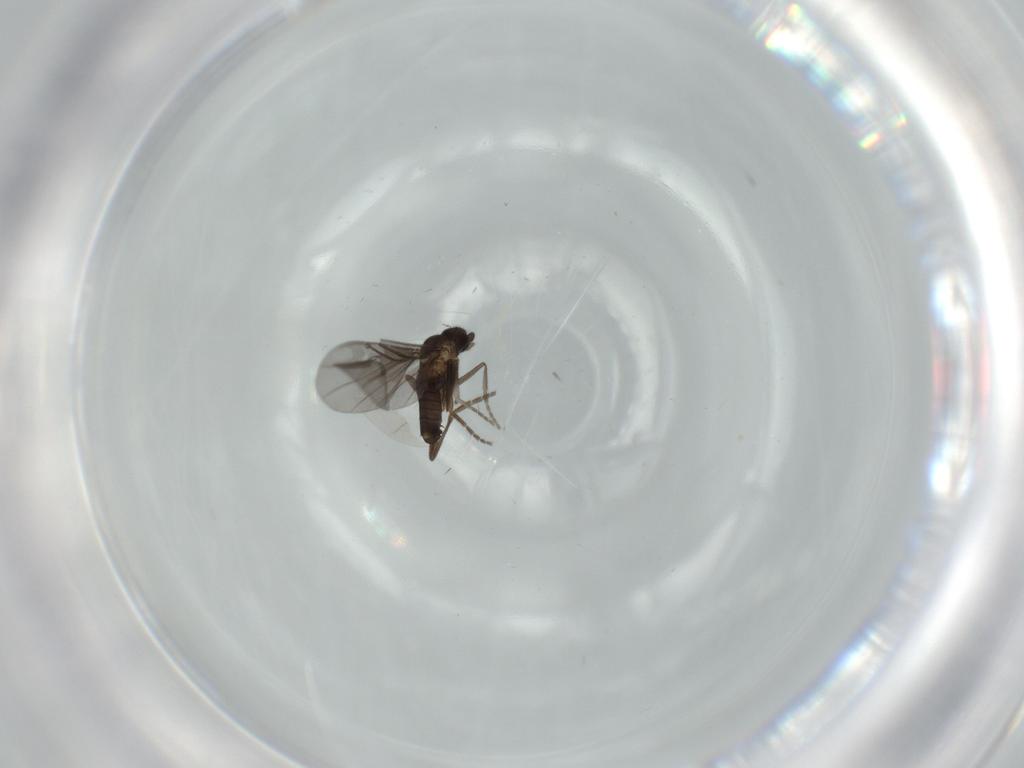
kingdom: Animalia
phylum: Arthropoda
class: Insecta
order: Diptera
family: Phoridae
